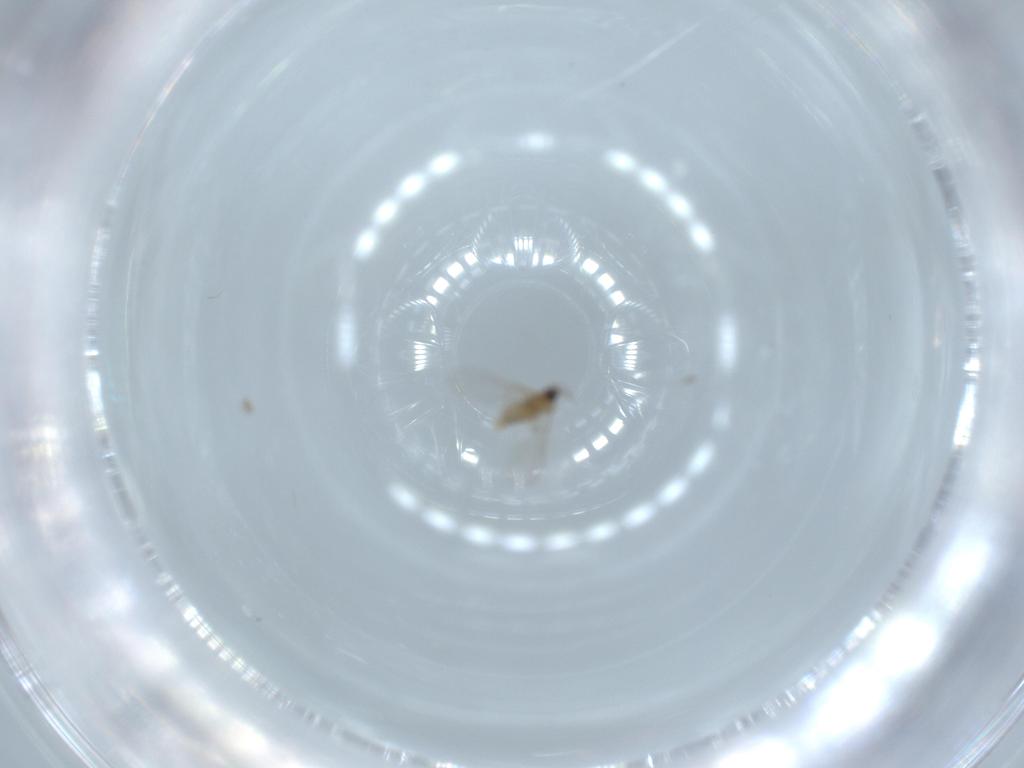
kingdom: Animalia
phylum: Arthropoda
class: Insecta
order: Diptera
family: Cecidomyiidae
